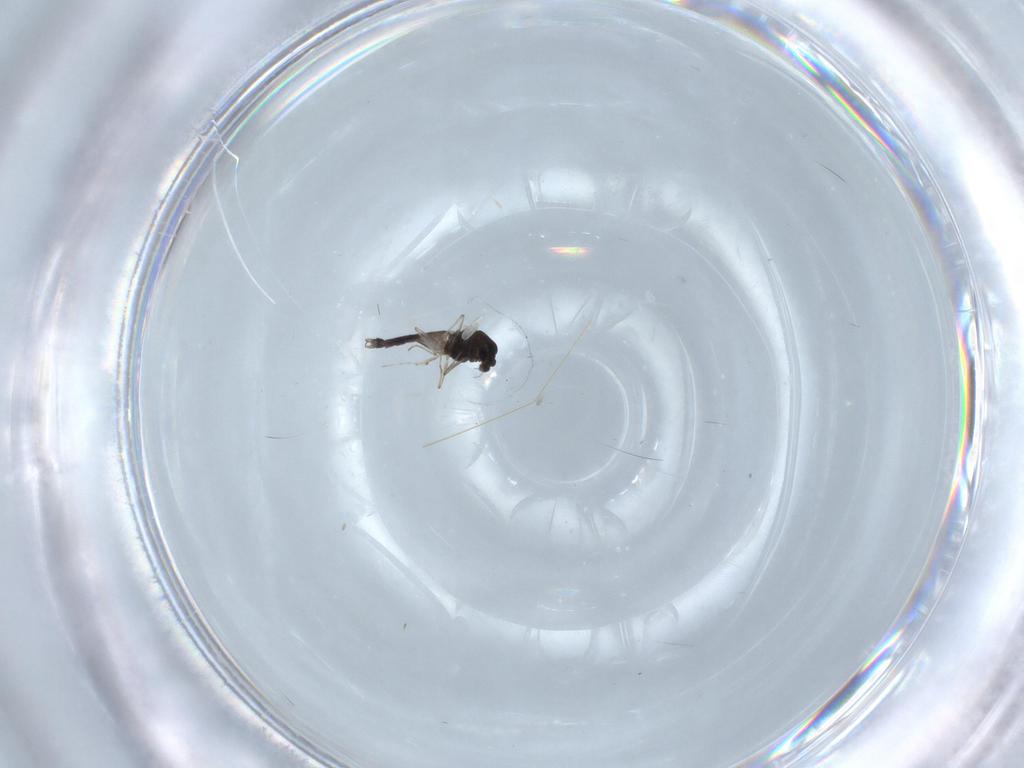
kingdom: Animalia
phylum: Arthropoda
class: Insecta
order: Diptera
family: Chironomidae
